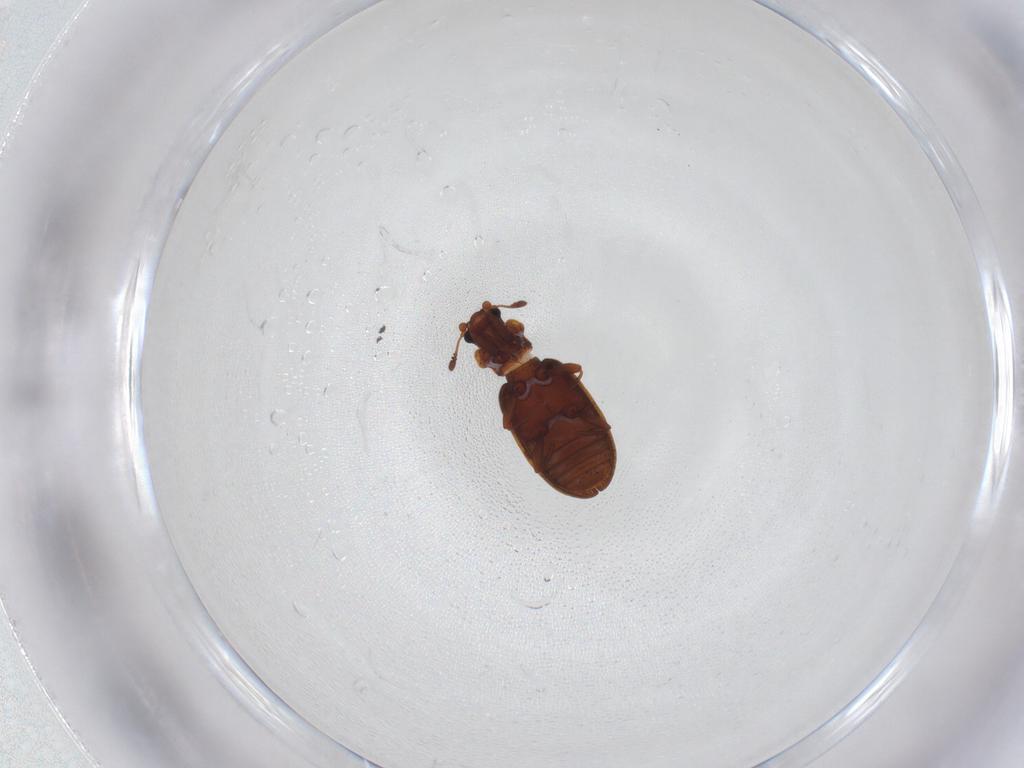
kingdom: Animalia
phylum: Arthropoda
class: Insecta
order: Coleoptera
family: Latridiidae
